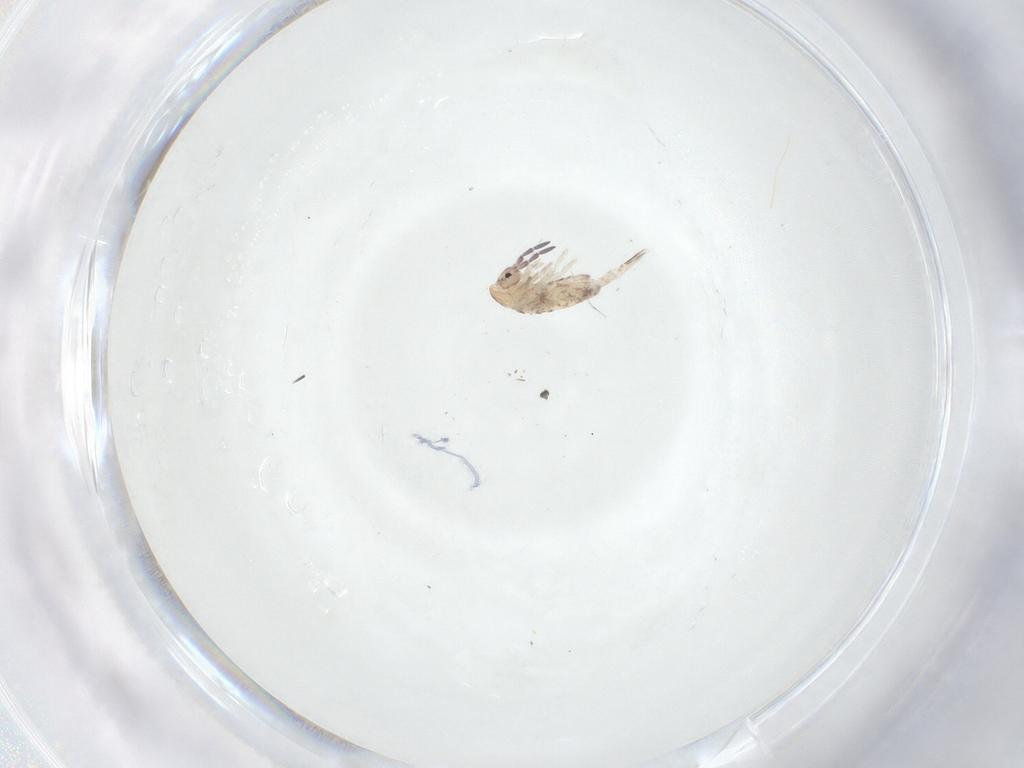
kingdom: Animalia
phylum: Arthropoda
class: Collembola
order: Entomobryomorpha
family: Entomobryidae
